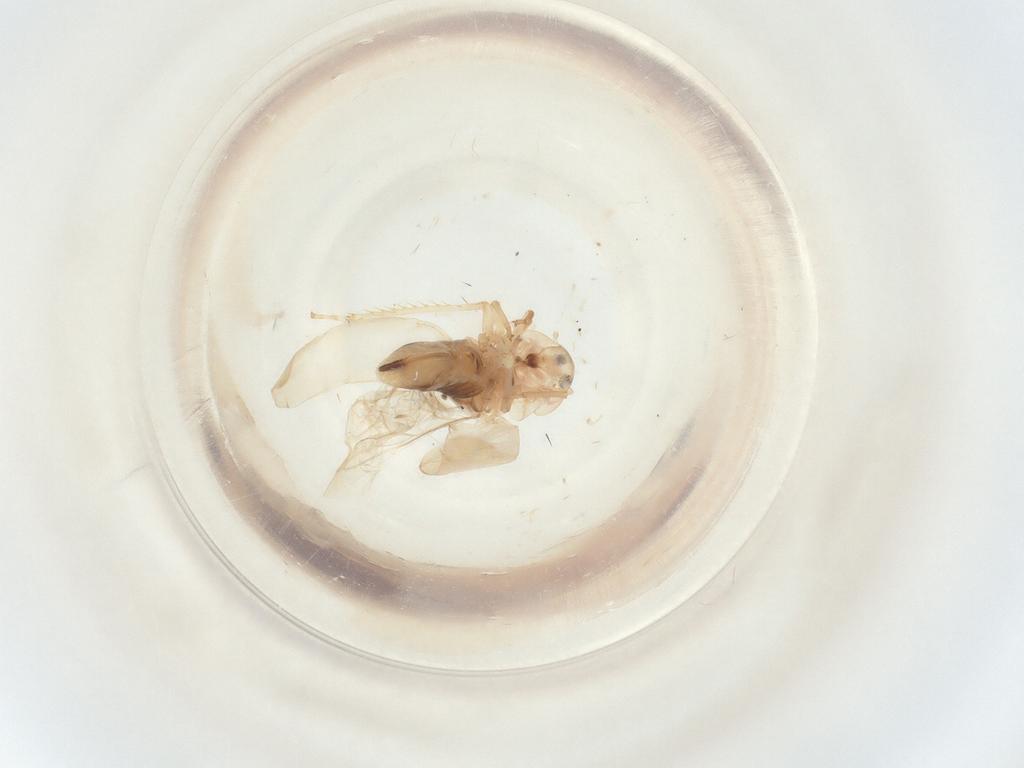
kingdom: Animalia
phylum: Arthropoda
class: Insecta
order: Hemiptera
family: Cicadellidae
